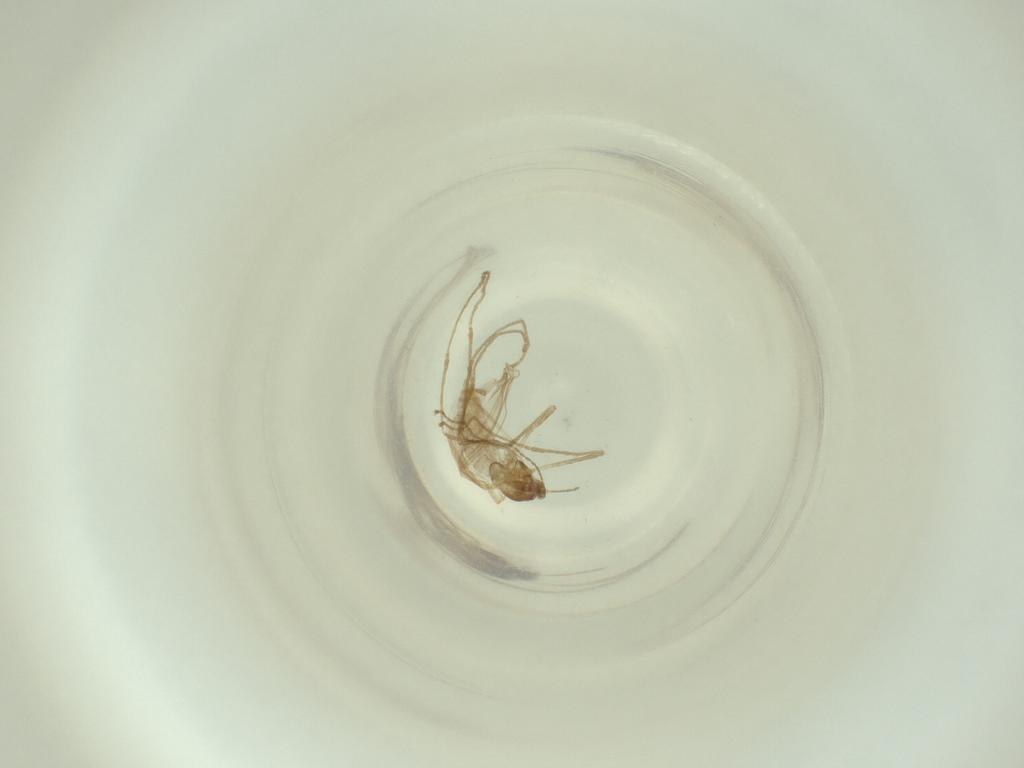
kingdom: Animalia
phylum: Arthropoda
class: Insecta
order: Diptera
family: Cecidomyiidae
